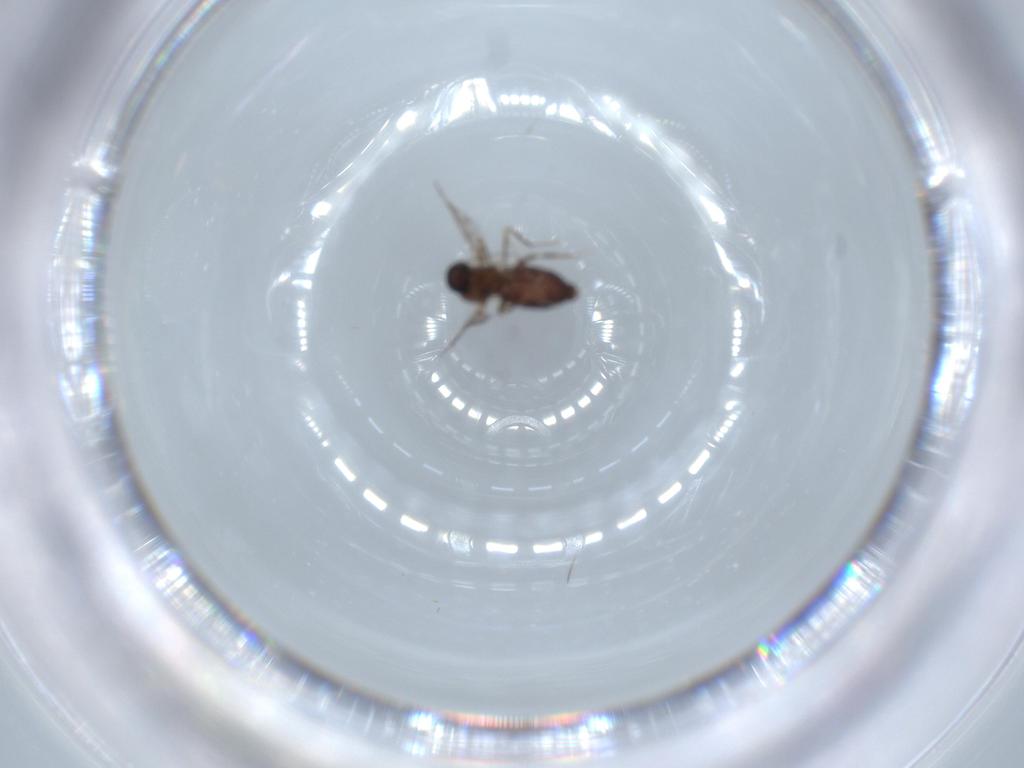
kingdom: Animalia
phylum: Arthropoda
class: Insecta
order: Diptera
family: Ceratopogonidae
